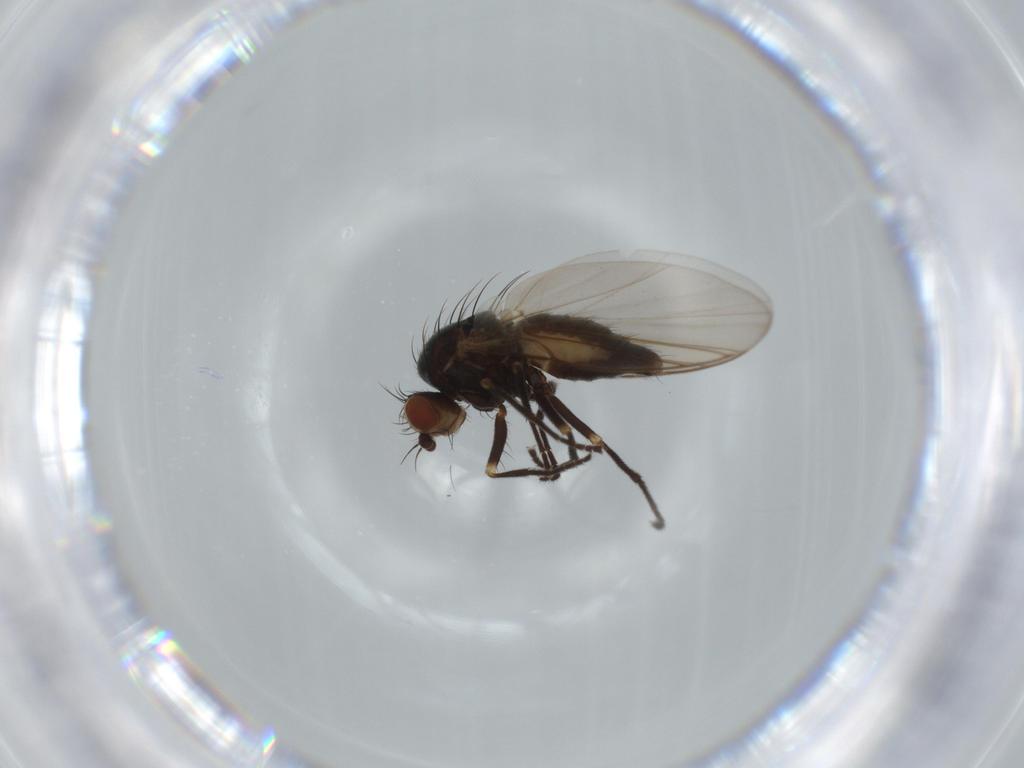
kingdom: Animalia
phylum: Arthropoda
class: Insecta
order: Diptera
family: Agromyzidae
